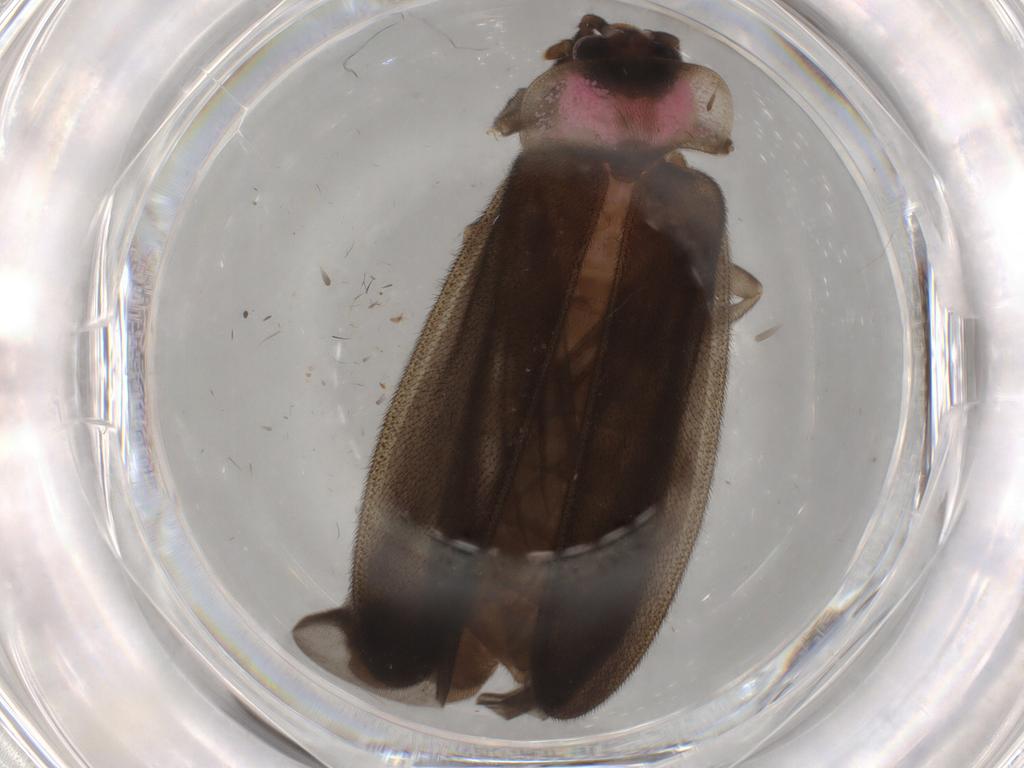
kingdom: Animalia
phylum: Arthropoda
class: Insecta
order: Coleoptera
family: Lampyridae
